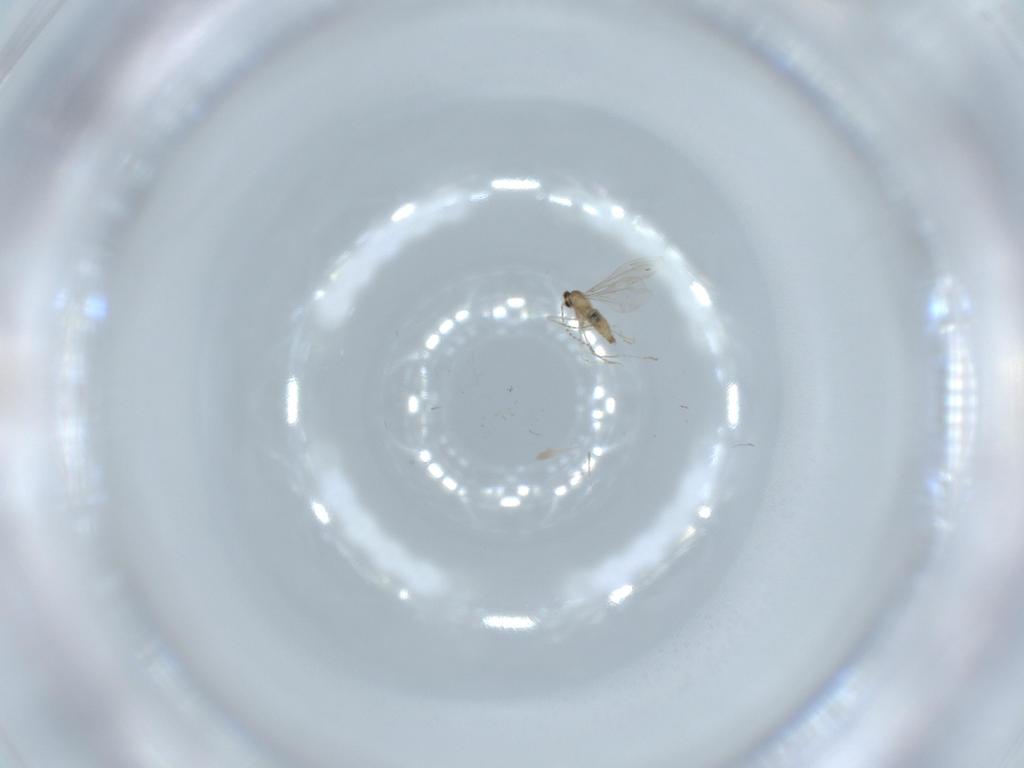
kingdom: Animalia
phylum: Arthropoda
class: Insecta
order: Diptera
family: Cecidomyiidae
